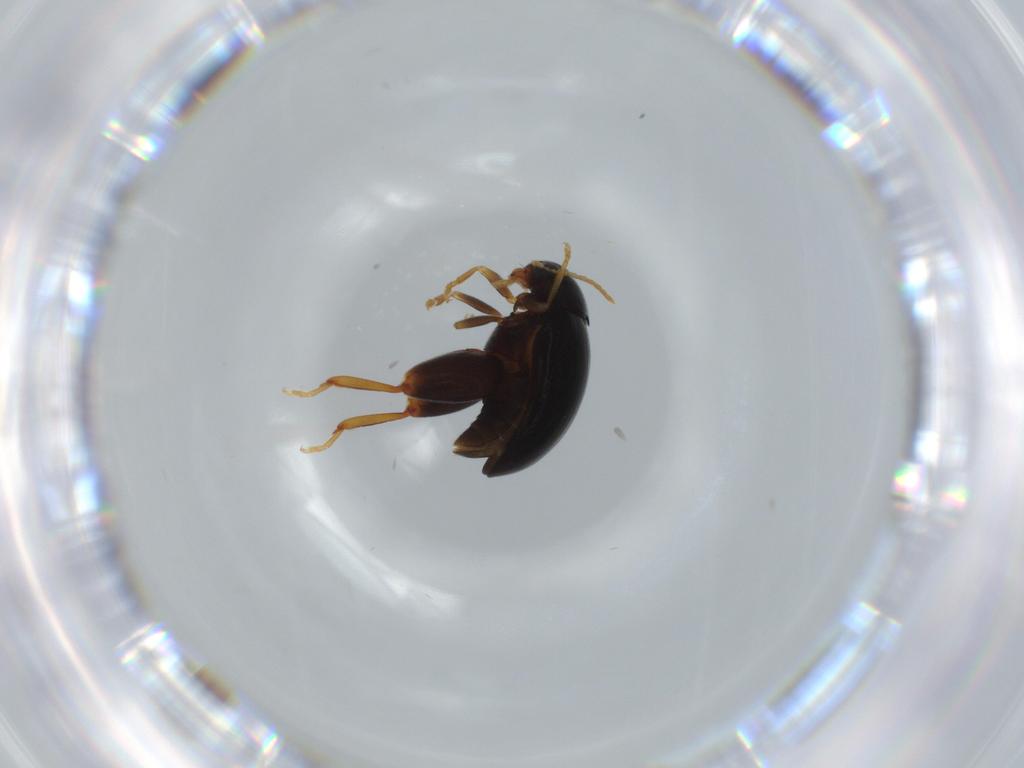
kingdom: Animalia
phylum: Arthropoda
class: Insecta
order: Coleoptera
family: Chrysomelidae
